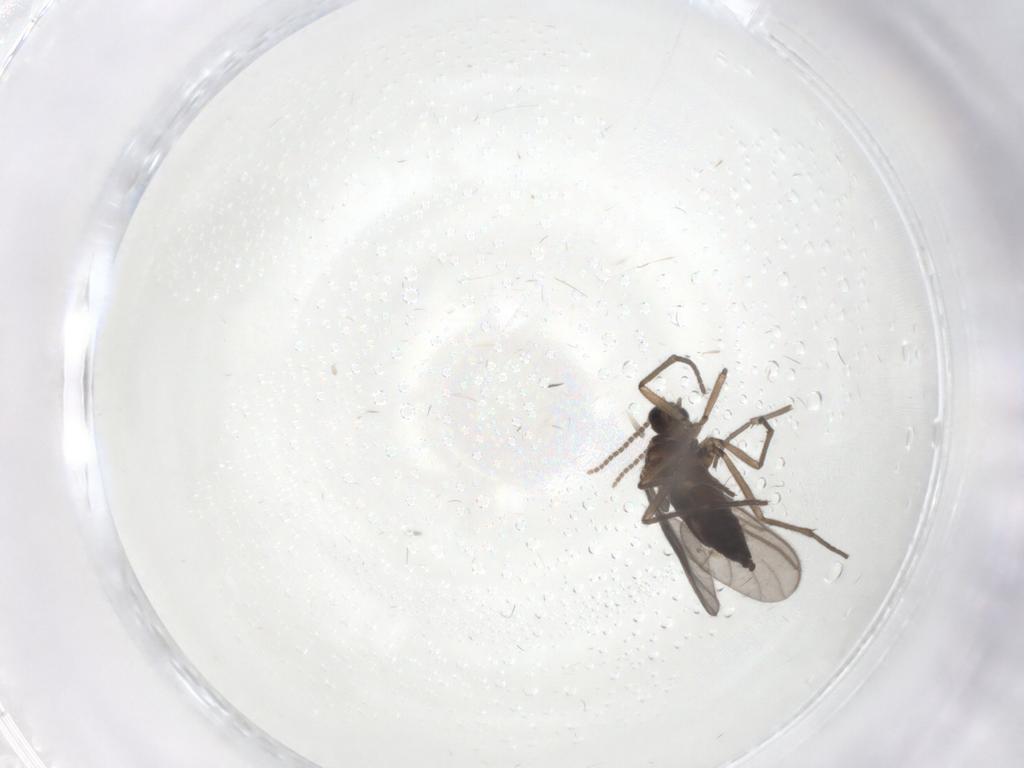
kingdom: Animalia
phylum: Arthropoda
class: Insecta
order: Diptera
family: Sciaridae
